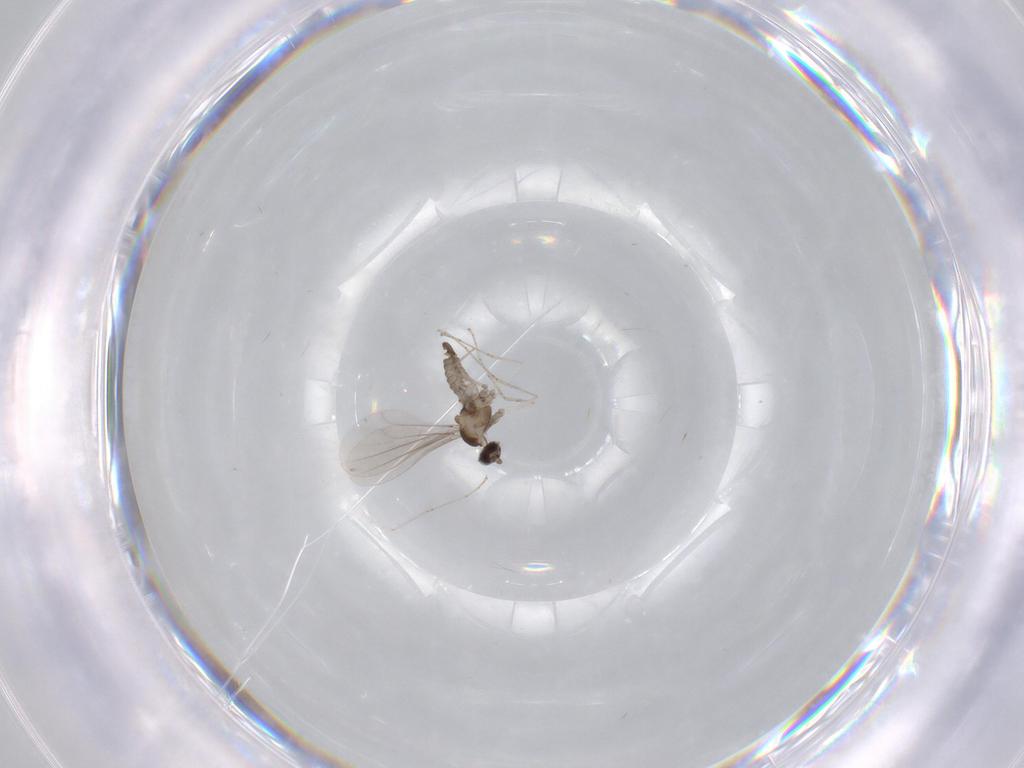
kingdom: Animalia
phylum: Arthropoda
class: Insecta
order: Diptera
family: Cecidomyiidae
